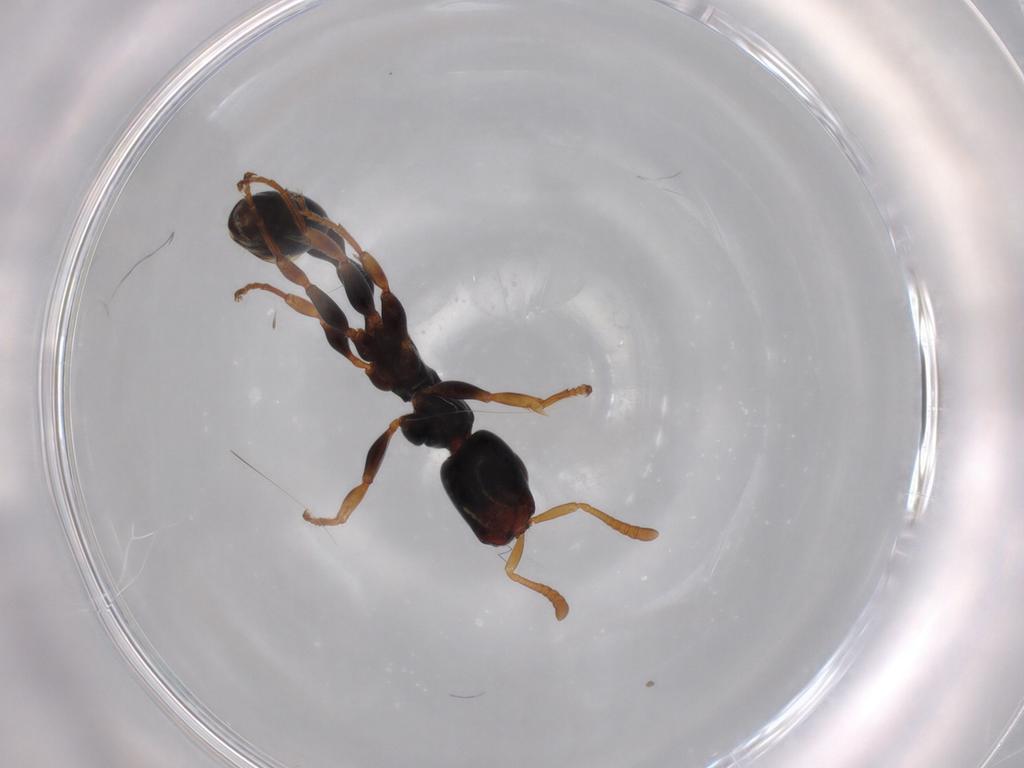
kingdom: Animalia
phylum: Arthropoda
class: Insecta
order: Hymenoptera
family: Formicidae
